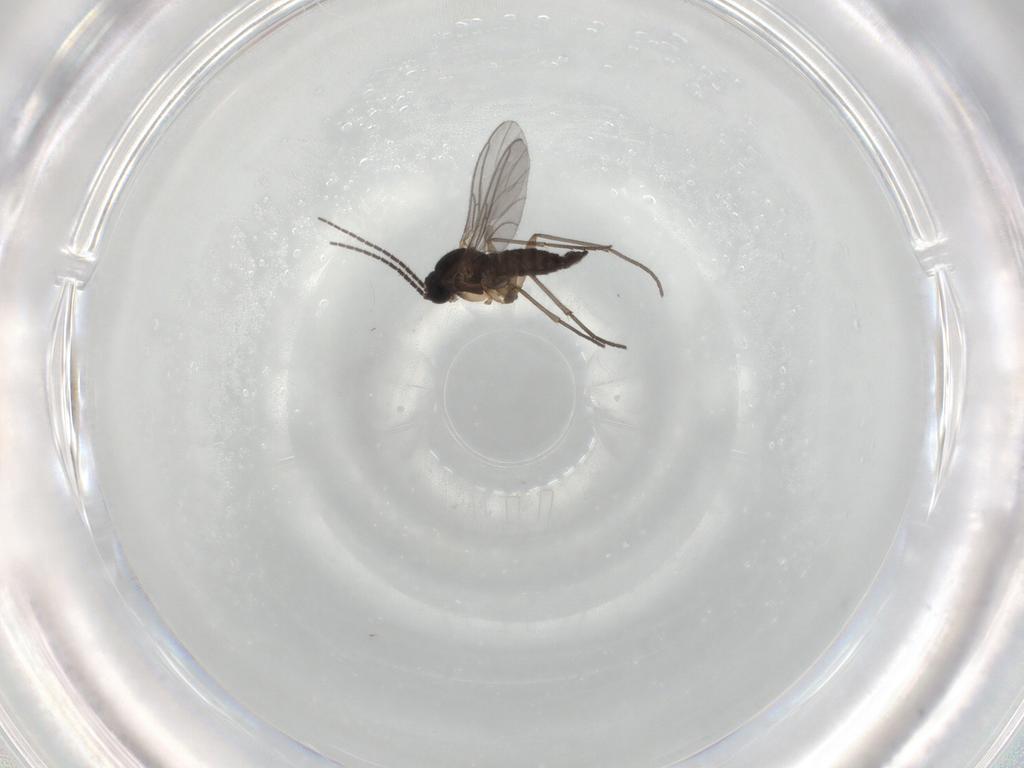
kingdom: Animalia
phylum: Arthropoda
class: Insecta
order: Diptera
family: Sciaridae
